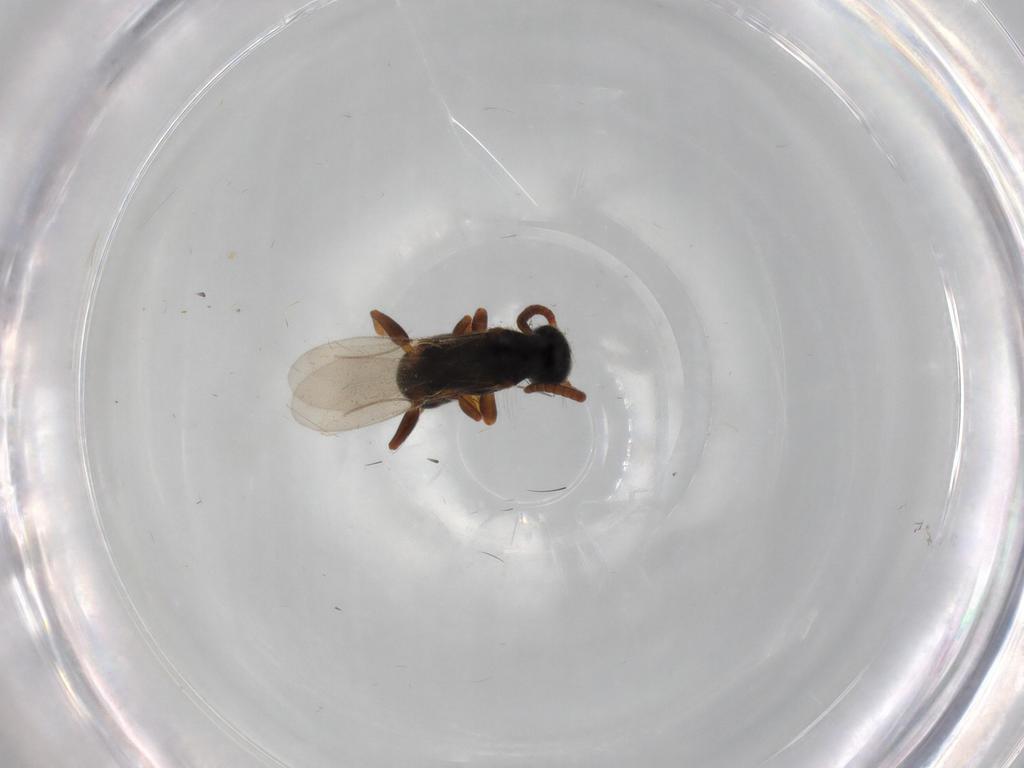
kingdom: Animalia
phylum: Arthropoda
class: Insecta
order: Hymenoptera
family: Bethylidae
